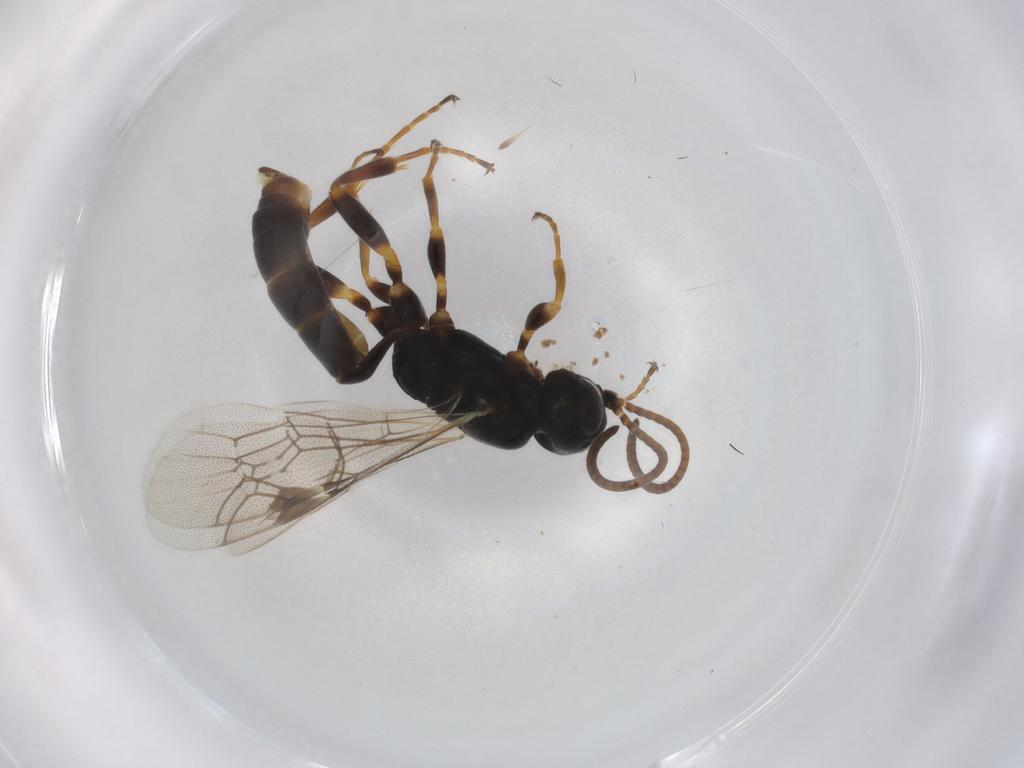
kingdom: Animalia
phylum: Arthropoda
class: Insecta
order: Hymenoptera
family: Ichneumonidae
